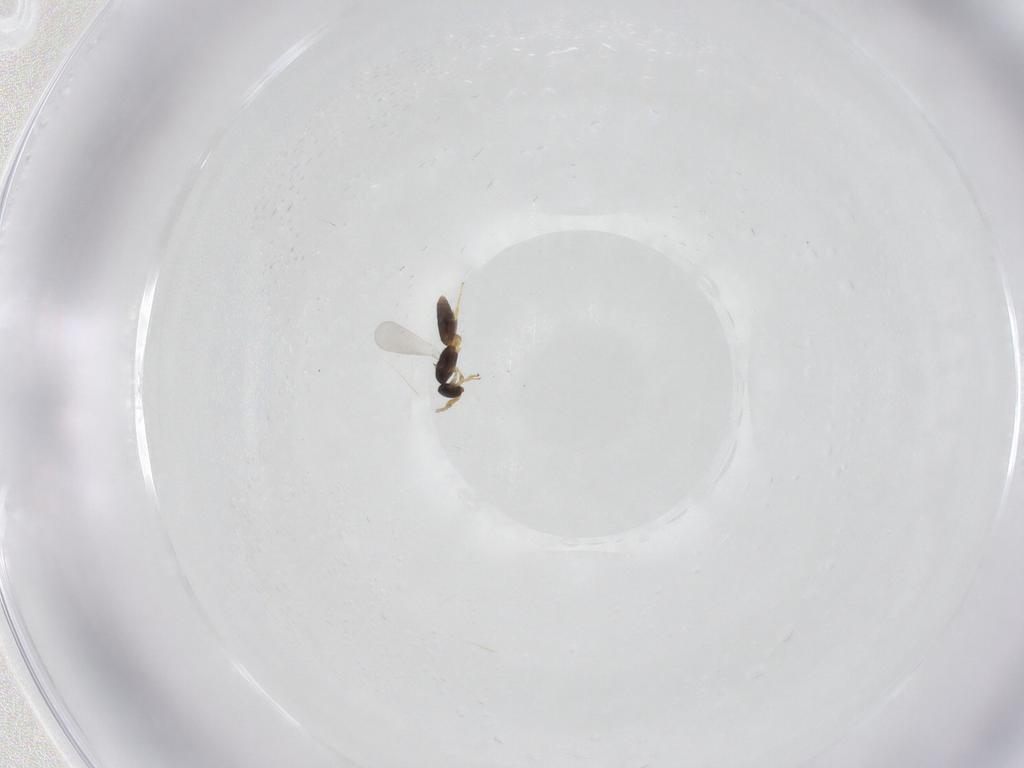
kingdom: Animalia
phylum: Arthropoda
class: Insecta
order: Hymenoptera
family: Platygastridae
